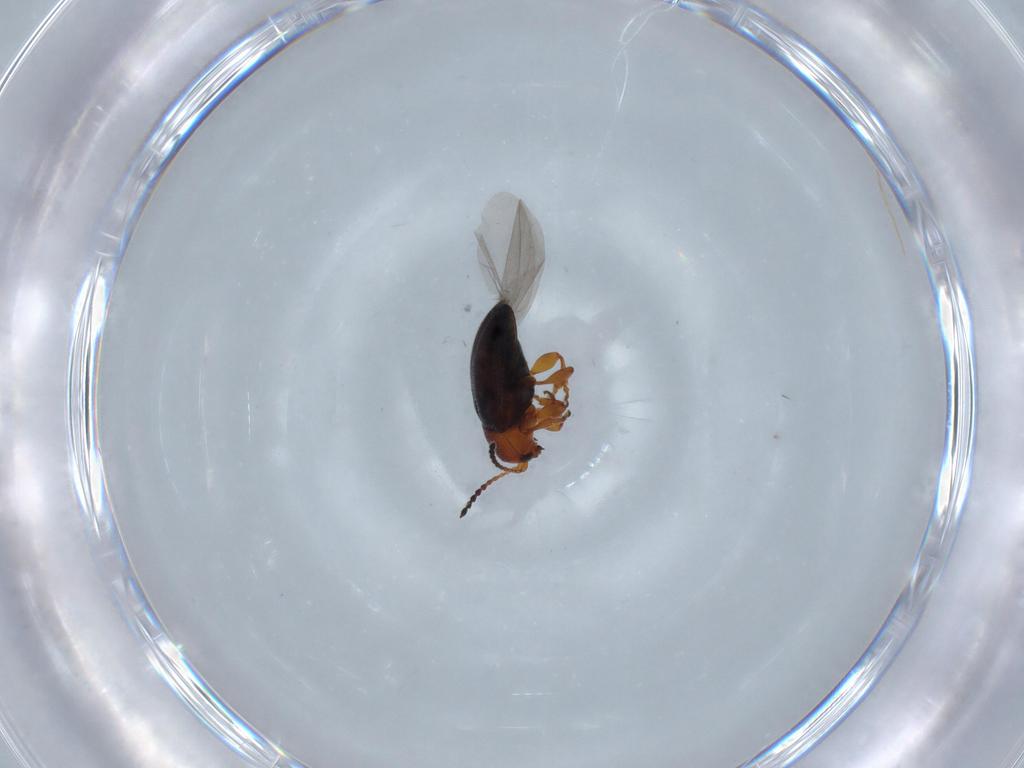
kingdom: Animalia
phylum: Arthropoda
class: Insecta
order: Coleoptera
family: Chrysomelidae
